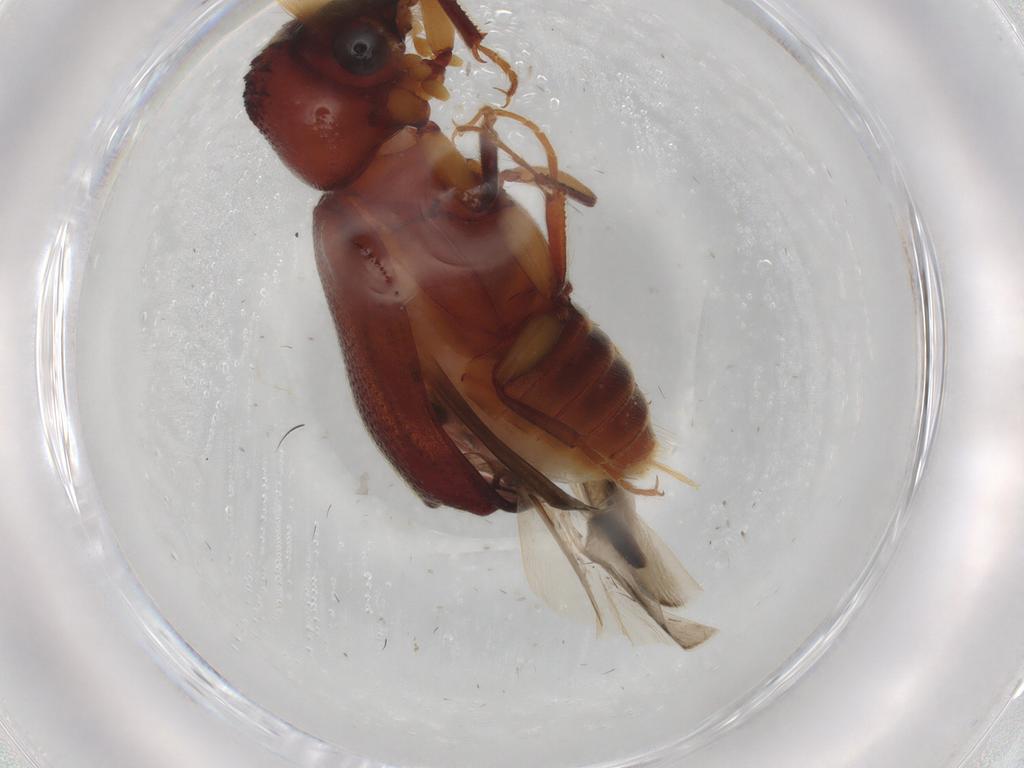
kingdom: Animalia
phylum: Arthropoda
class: Insecta
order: Coleoptera
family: Bostrichidae
